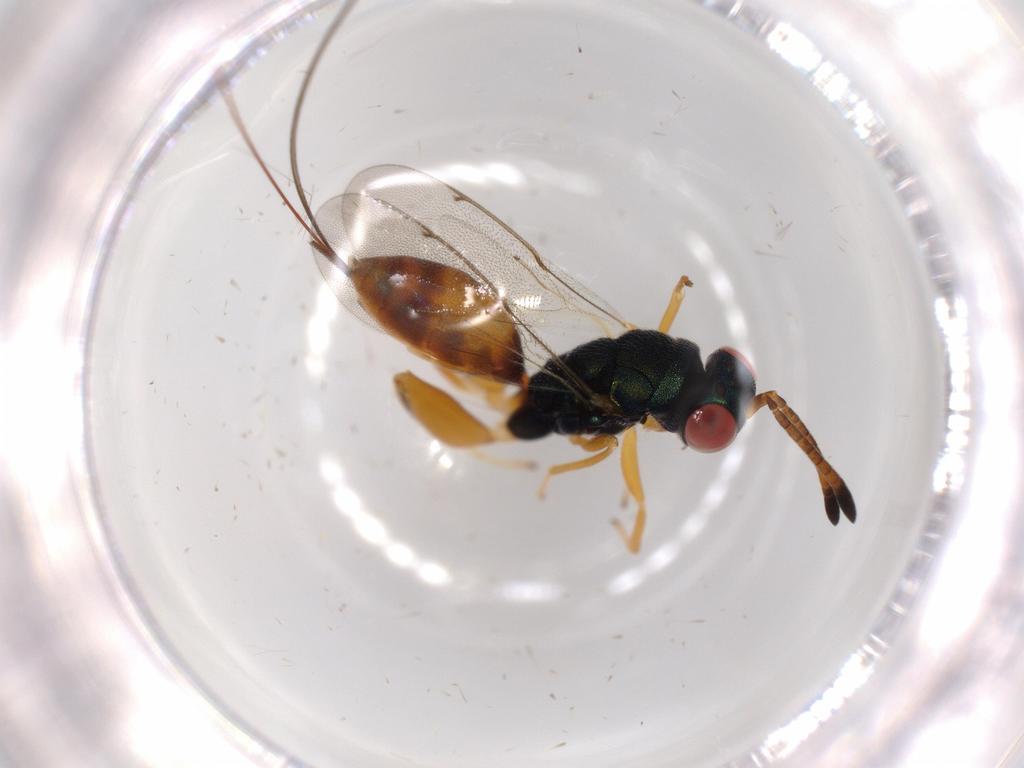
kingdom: Animalia
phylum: Arthropoda
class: Insecta
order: Hymenoptera
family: Torymidae
